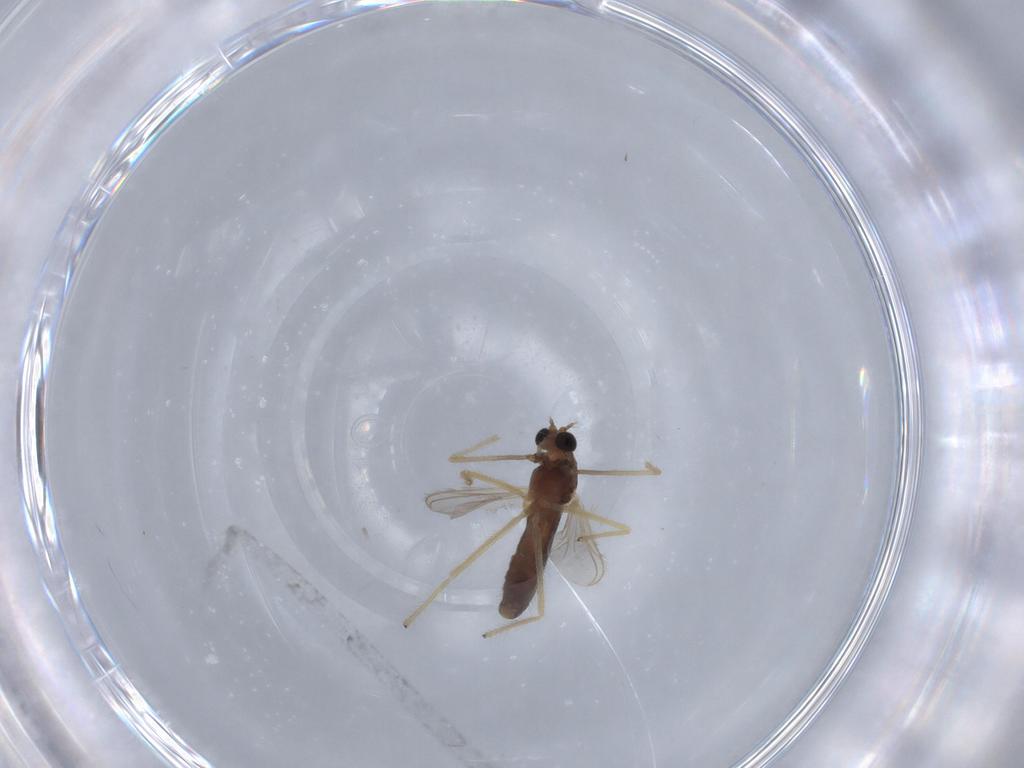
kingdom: Animalia
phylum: Arthropoda
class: Insecta
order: Diptera
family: Chironomidae
